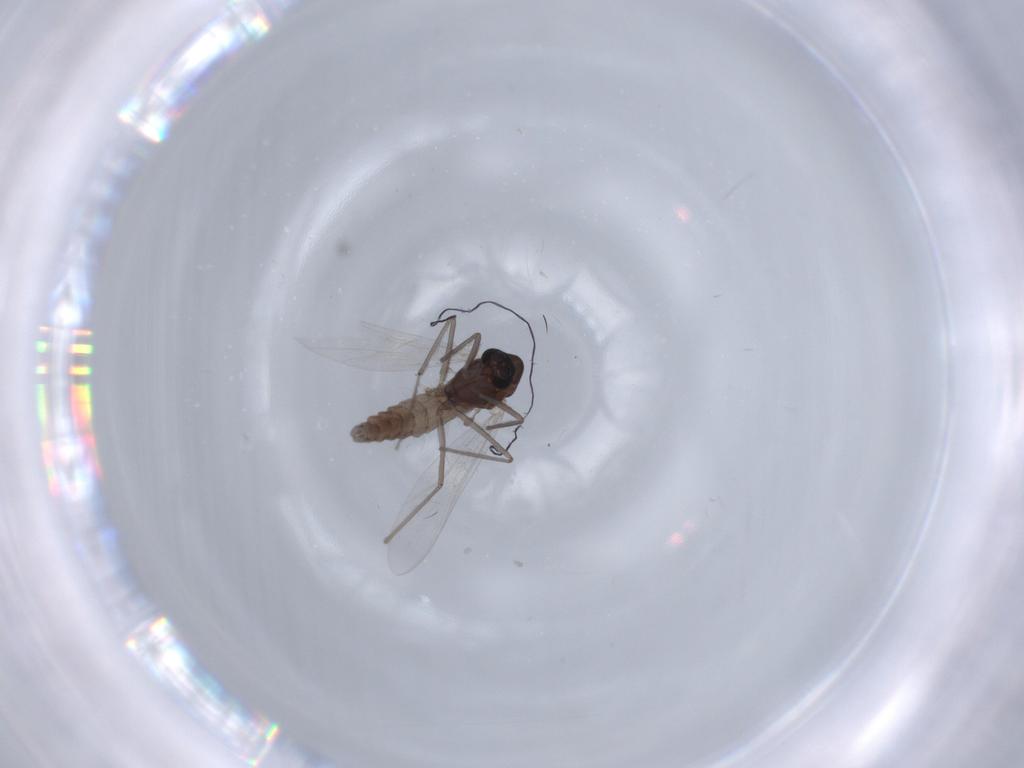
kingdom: Animalia
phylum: Arthropoda
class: Insecta
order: Diptera
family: Chironomidae
